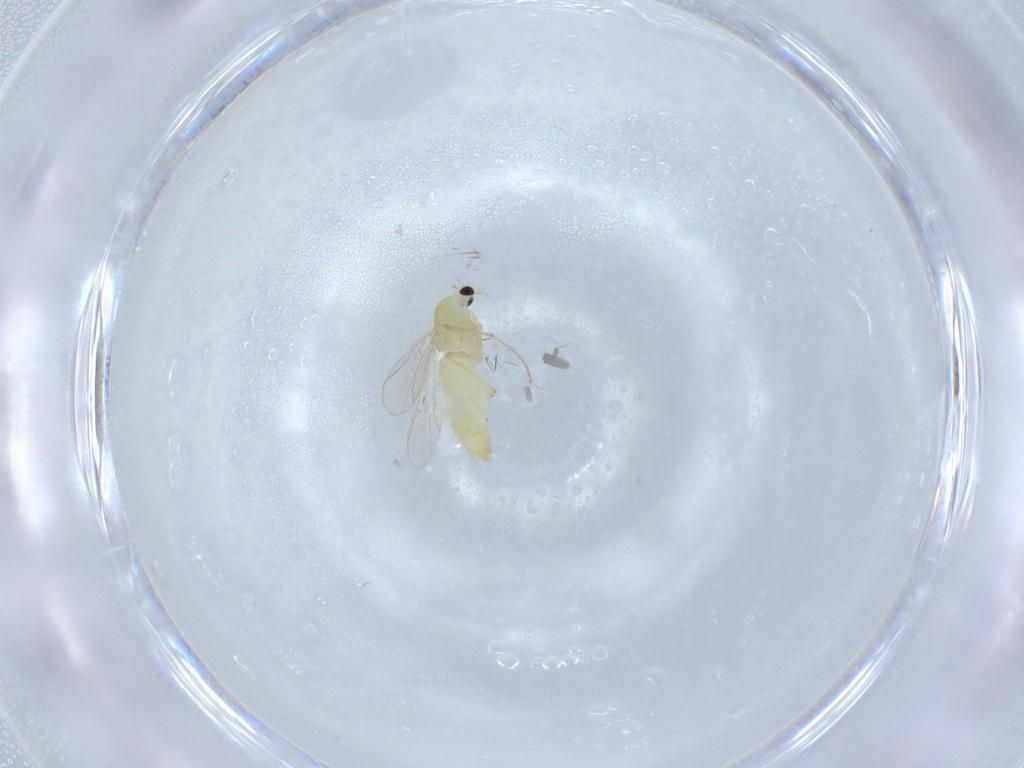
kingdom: Animalia
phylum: Arthropoda
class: Insecta
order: Diptera
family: Chironomidae
